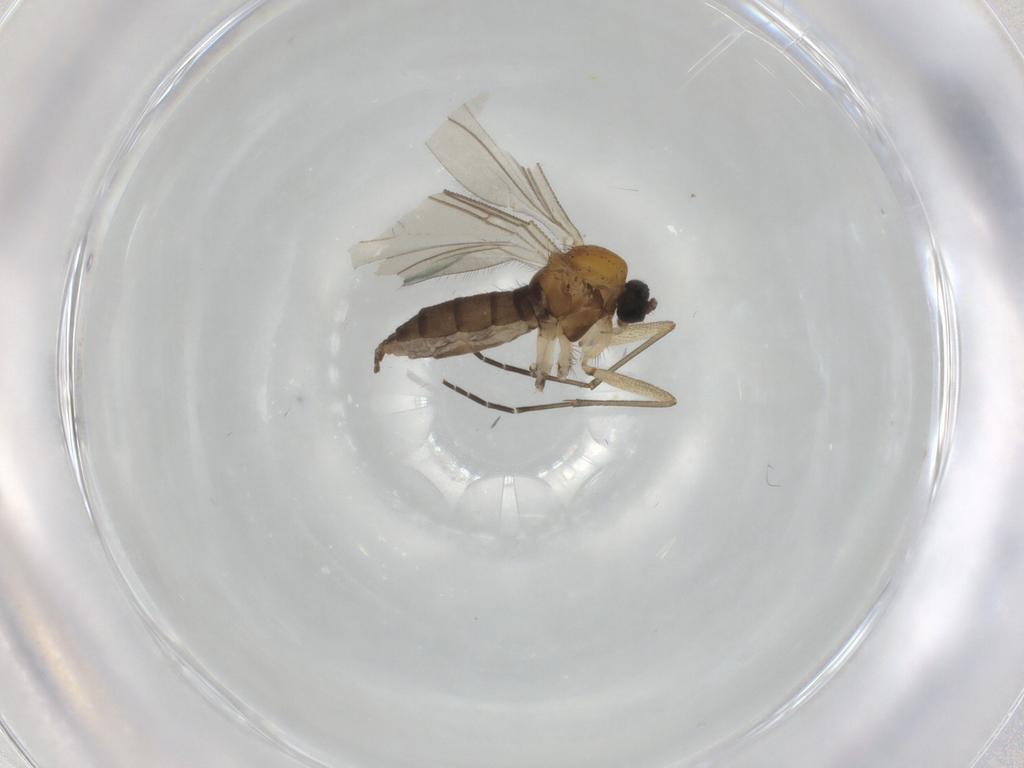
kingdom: Animalia
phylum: Arthropoda
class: Insecta
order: Diptera
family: Sciaridae
